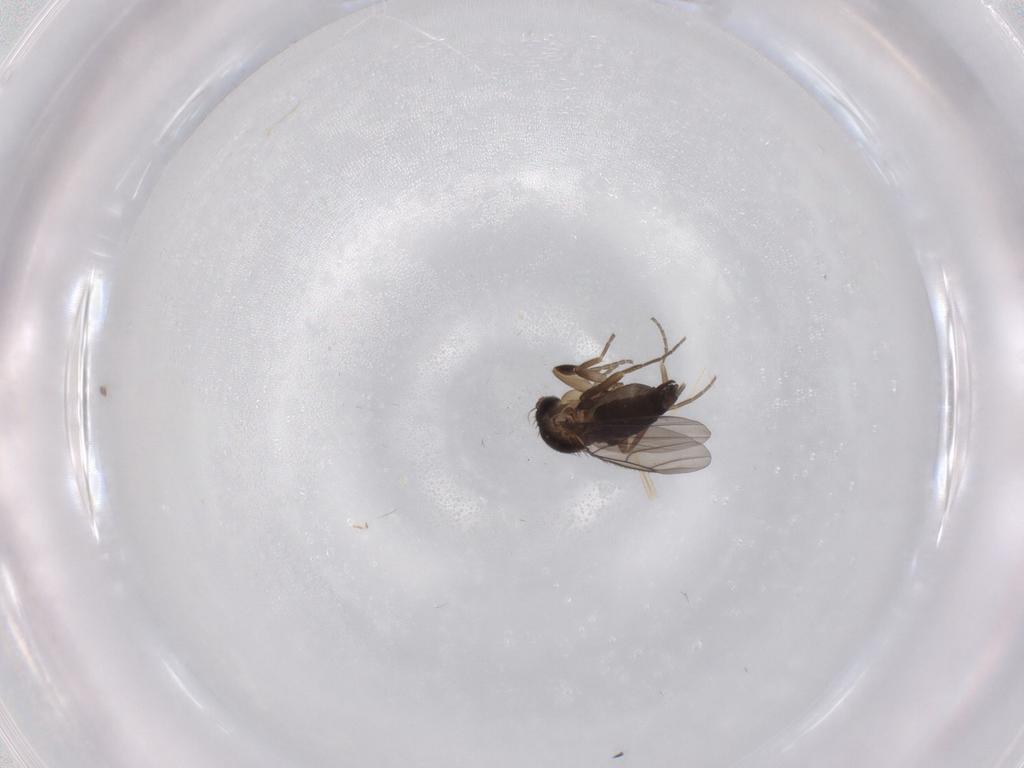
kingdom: Animalia
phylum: Arthropoda
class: Insecta
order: Diptera
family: Phoridae
